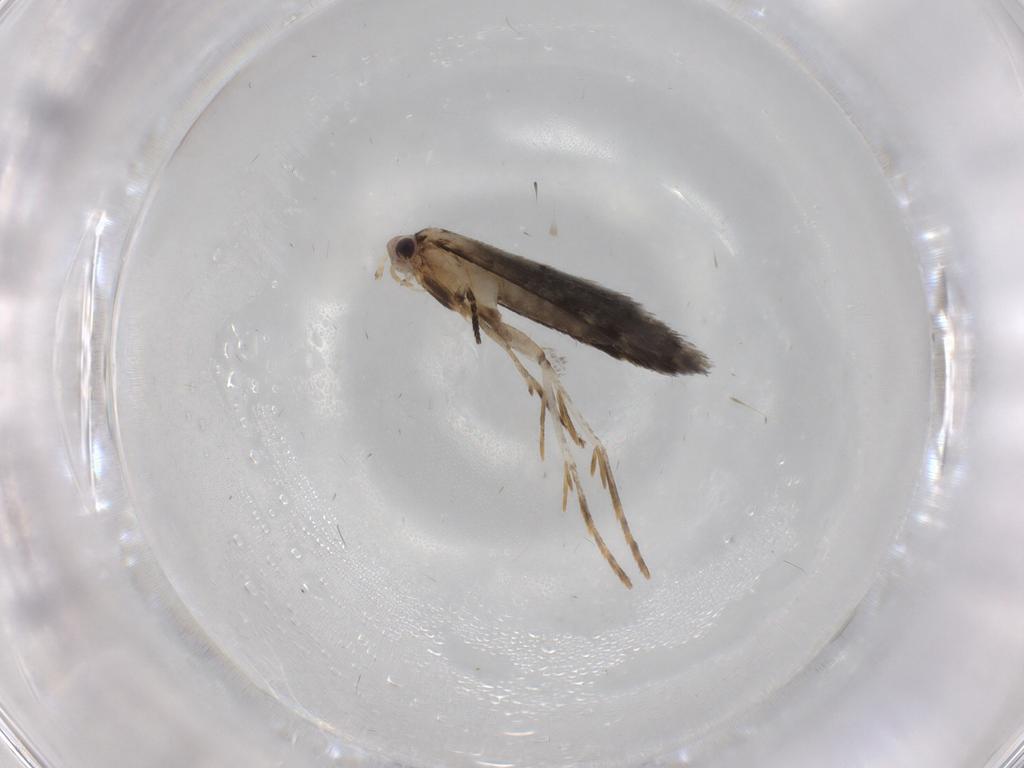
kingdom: Animalia
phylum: Arthropoda
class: Insecta
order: Lepidoptera
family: Tineidae
